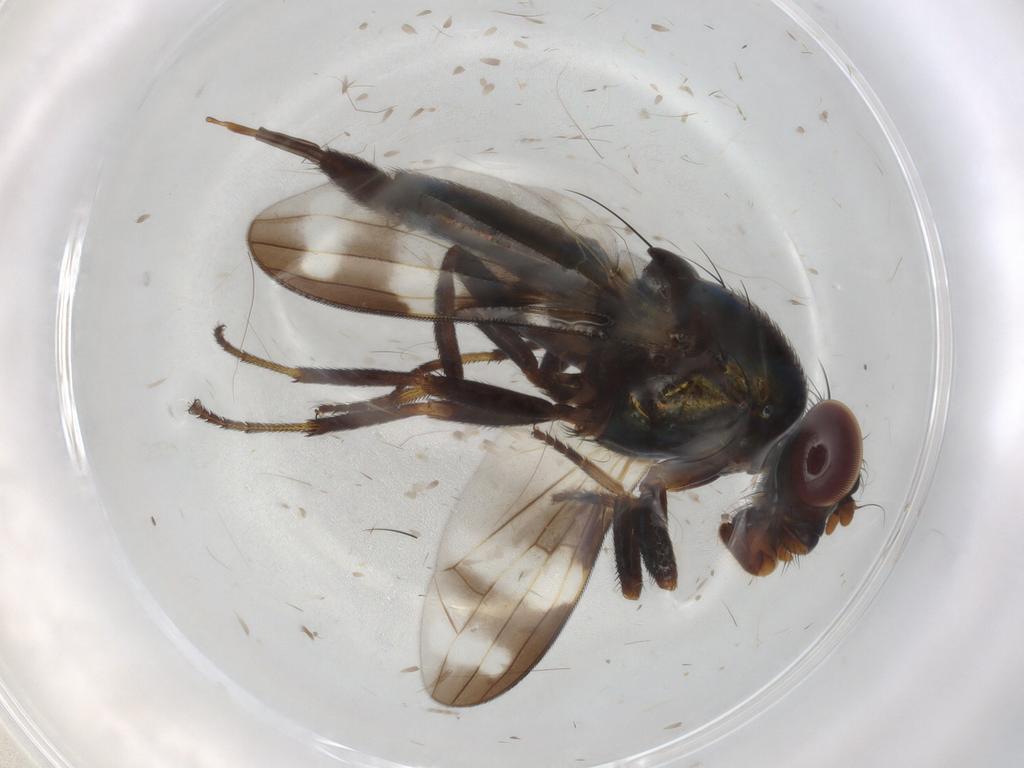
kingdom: Animalia
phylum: Arthropoda
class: Insecta
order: Diptera
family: Ulidiidae
